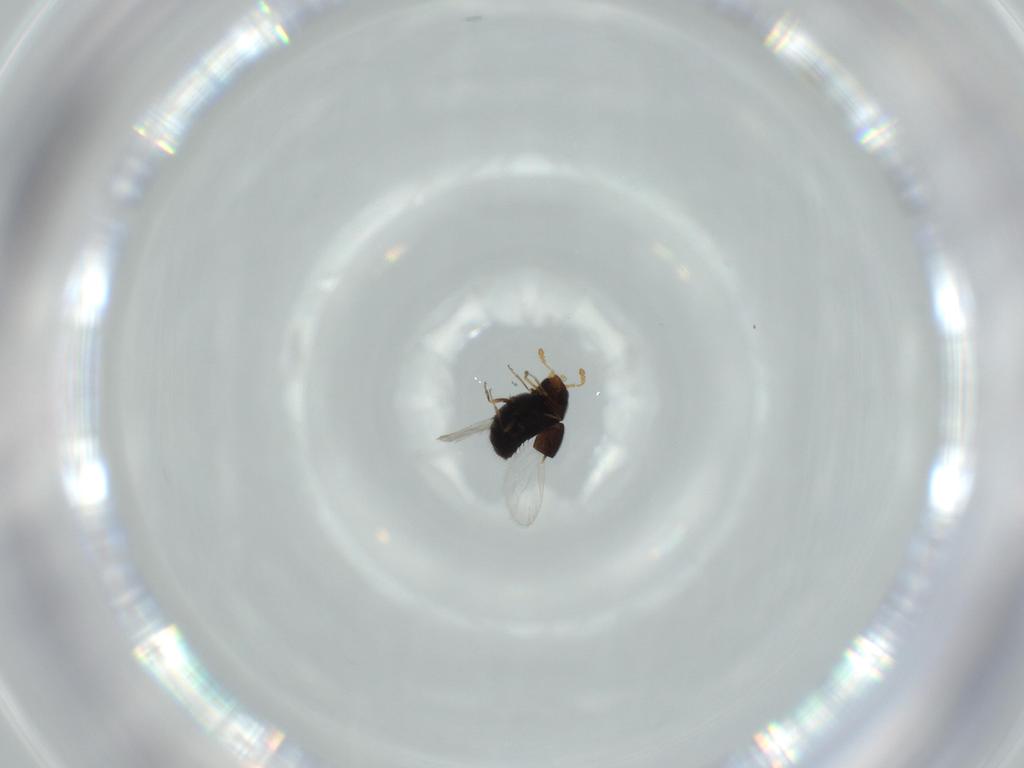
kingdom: Animalia
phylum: Arthropoda
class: Insecta
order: Coleoptera
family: Staphylinidae
